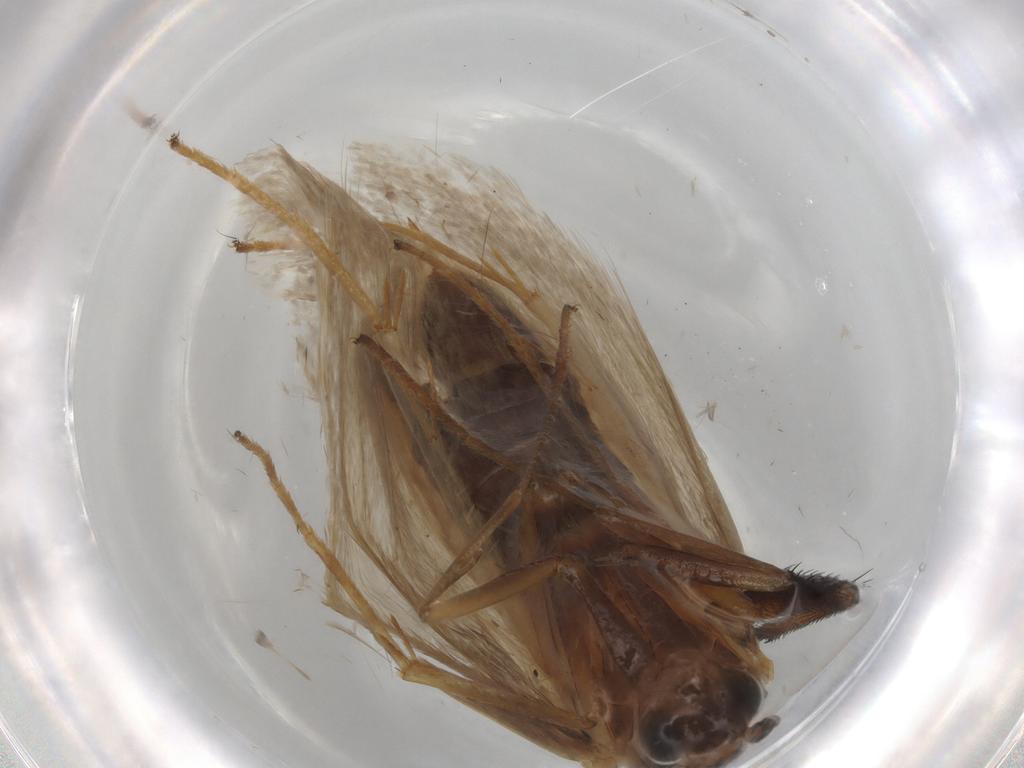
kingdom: Animalia
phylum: Arthropoda
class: Insecta
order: Lepidoptera
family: Adelidae
